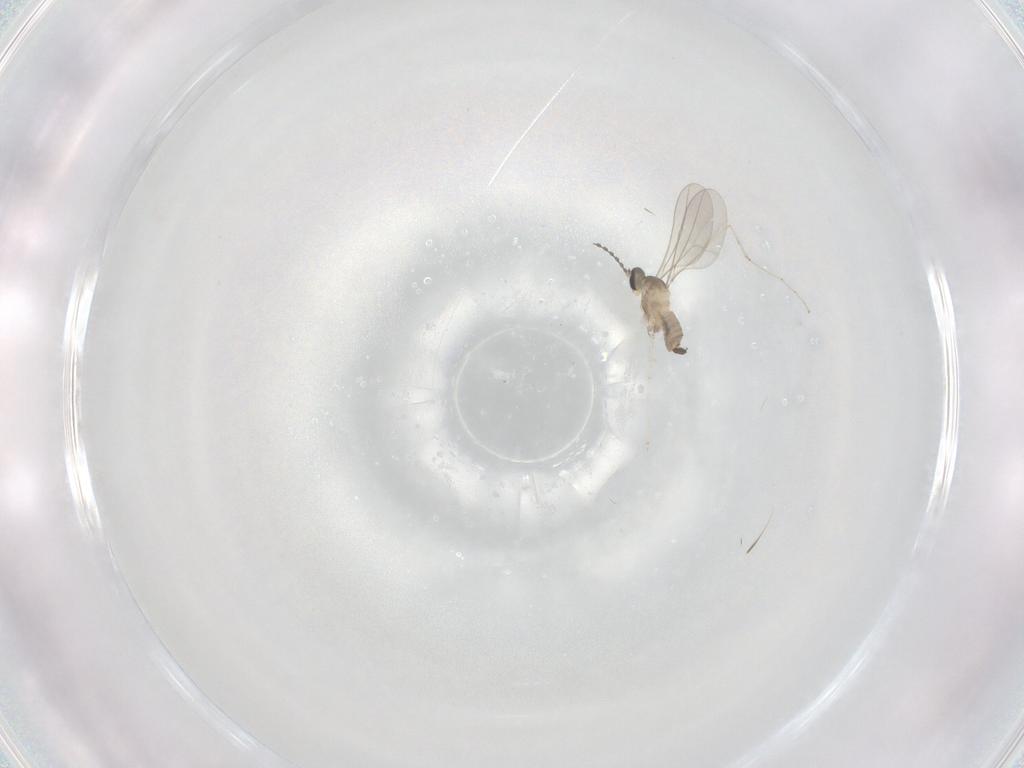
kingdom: Animalia
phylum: Arthropoda
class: Insecta
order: Diptera
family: Cecidomyiidae
